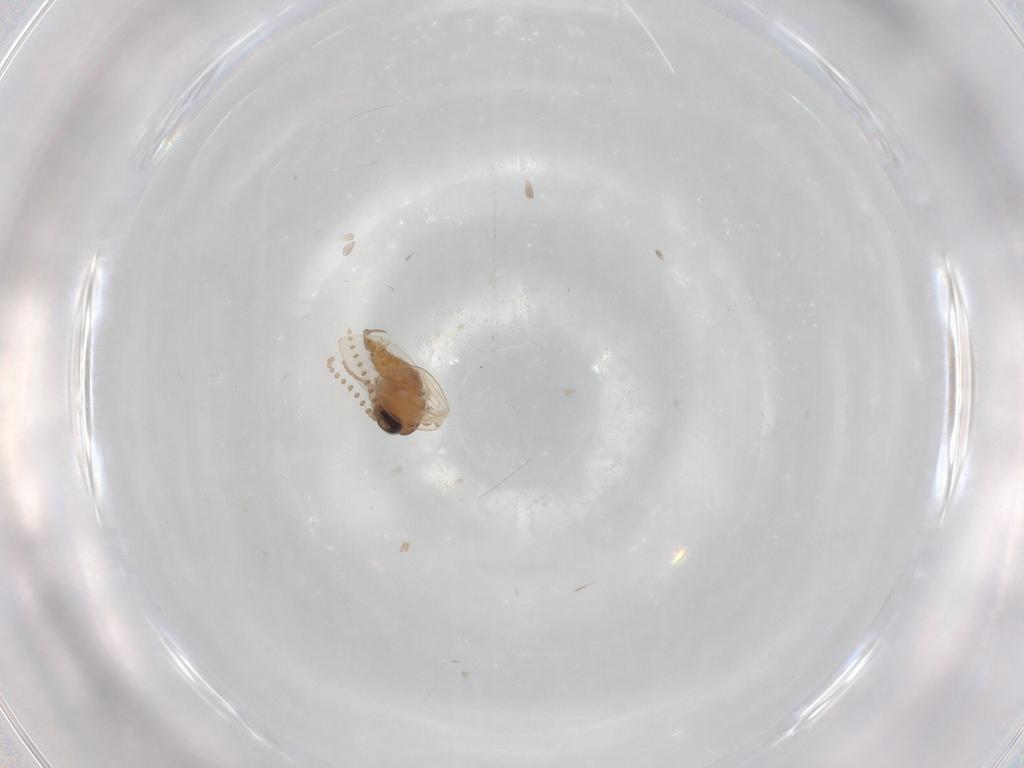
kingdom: Animalia
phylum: Arthropoda
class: Insecta
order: Diptera
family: Psychodidae
